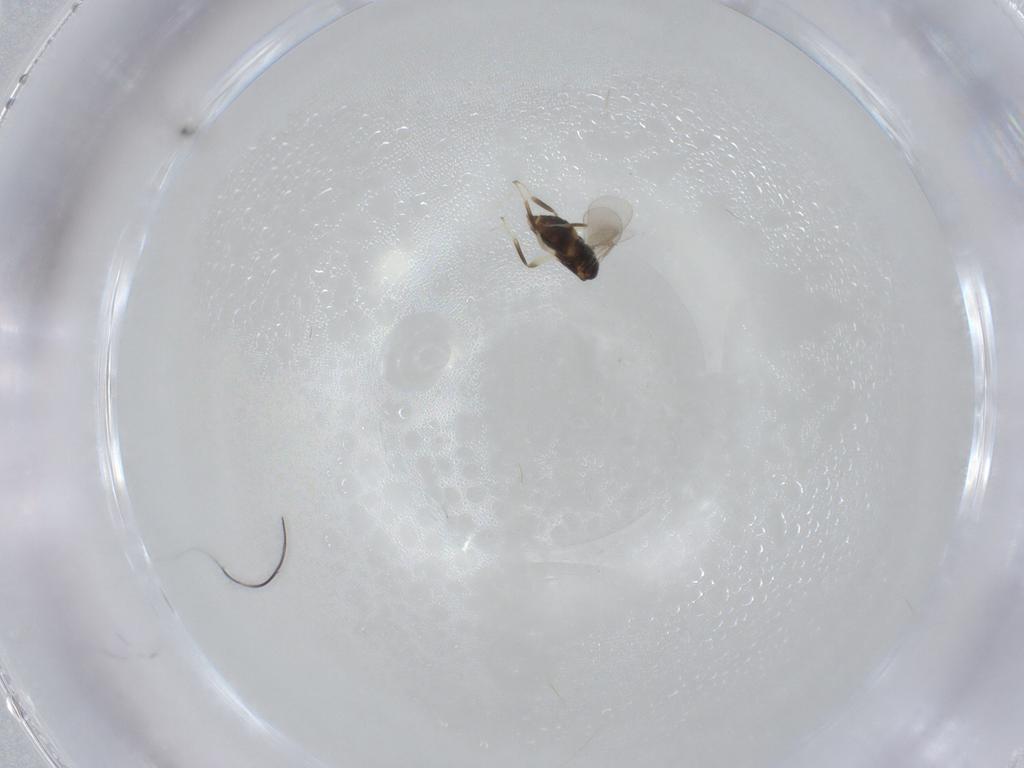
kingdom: Animalia
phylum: Arthropoda
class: Insecta
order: Hymenoptera
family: Aphelinidae
